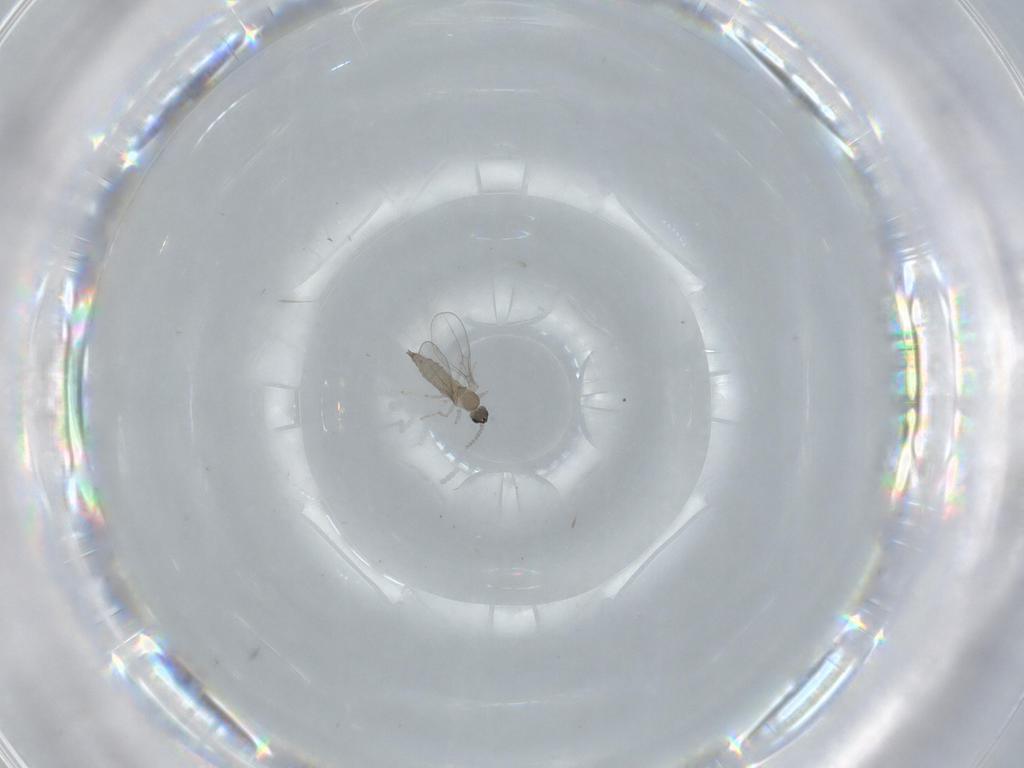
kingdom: Animalia
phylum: Arthropoda
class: Insecta
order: Diptera
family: Cecidomyiidae
